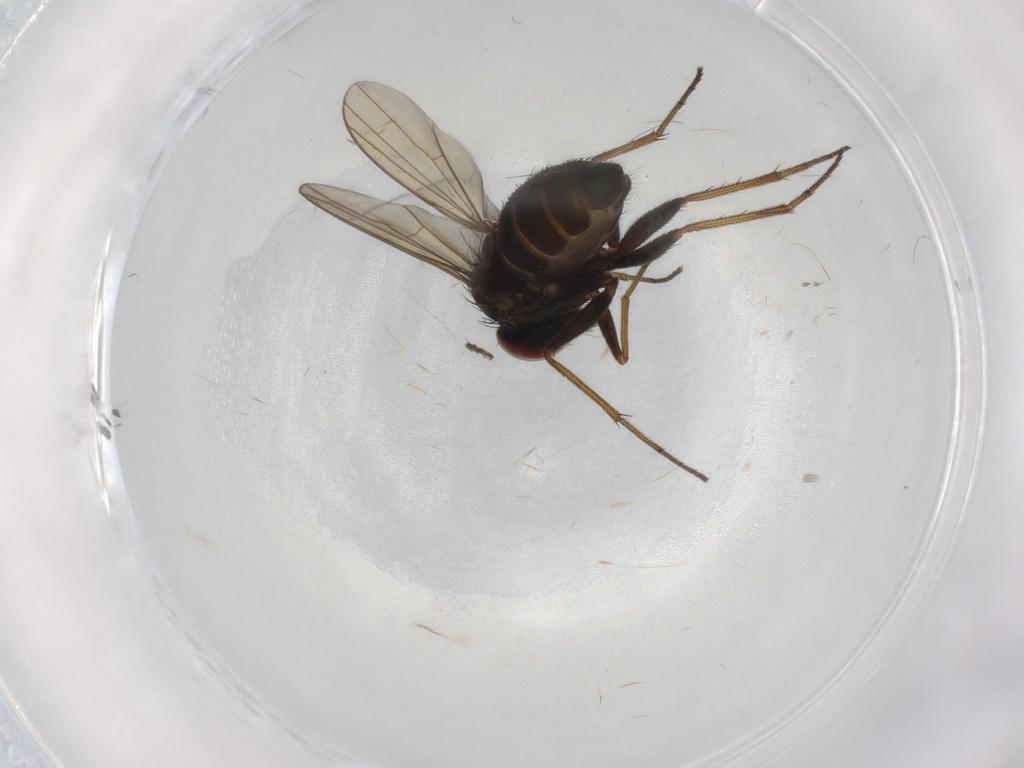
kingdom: Animalia
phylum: Arthropoda
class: Insecta
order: Diptera
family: Dolichopodidae
